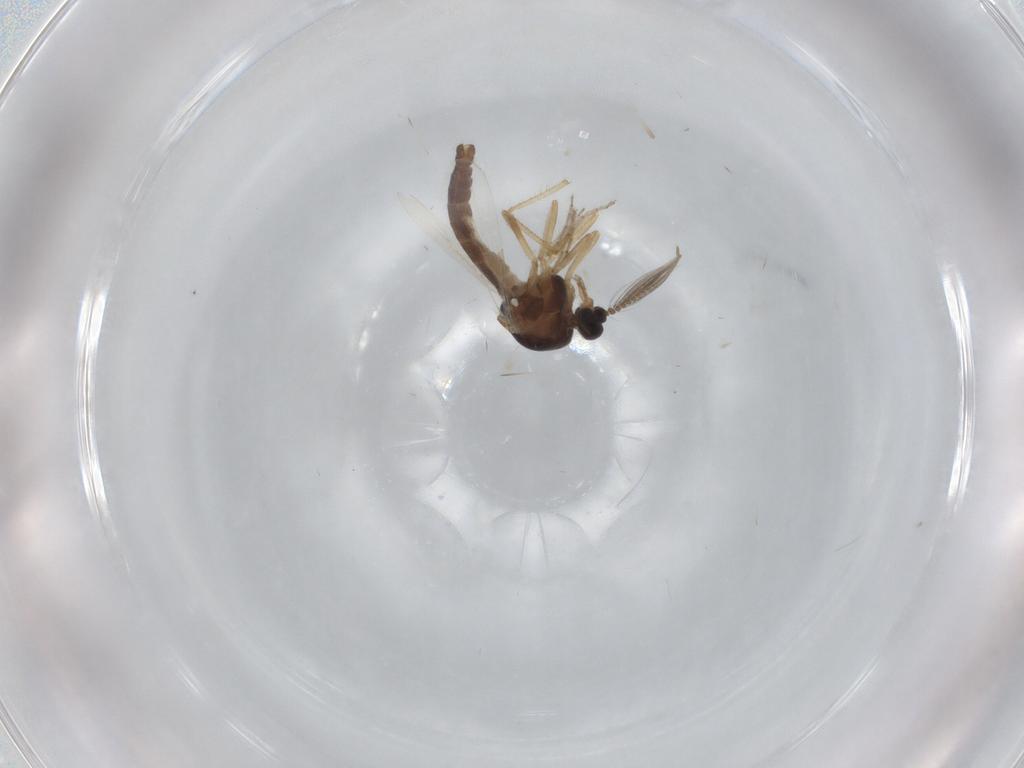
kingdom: Animalia
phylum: Arthropoda
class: Insecta
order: Diptera
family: Ceratopogonidae
